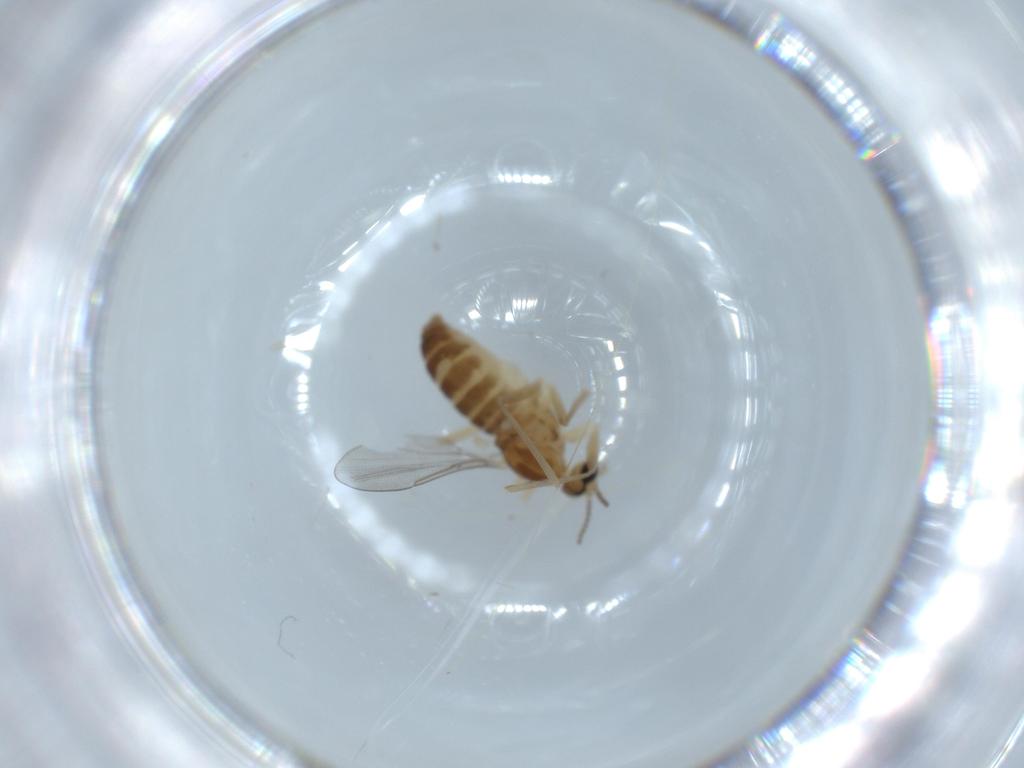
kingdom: Animalia
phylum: Arthropoda
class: Insecta
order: Diptera
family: Cecidomyiidae
